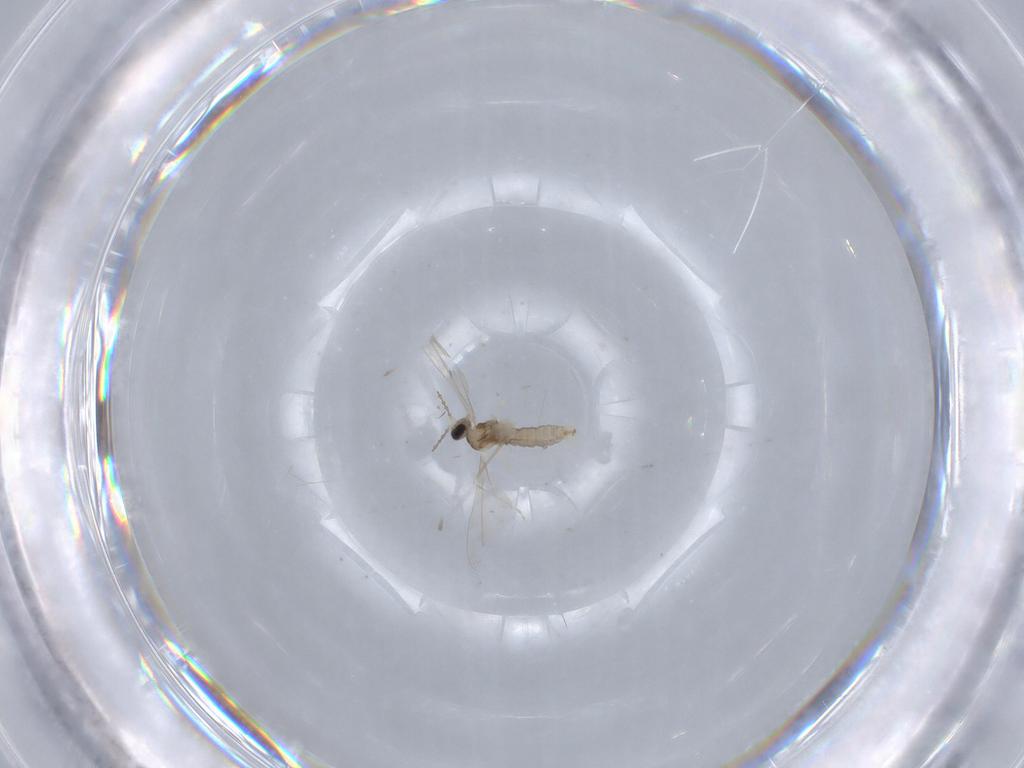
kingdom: Animalia
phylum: Arthropoda
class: Insecta
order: Diptera
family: Cecidomyiidae
